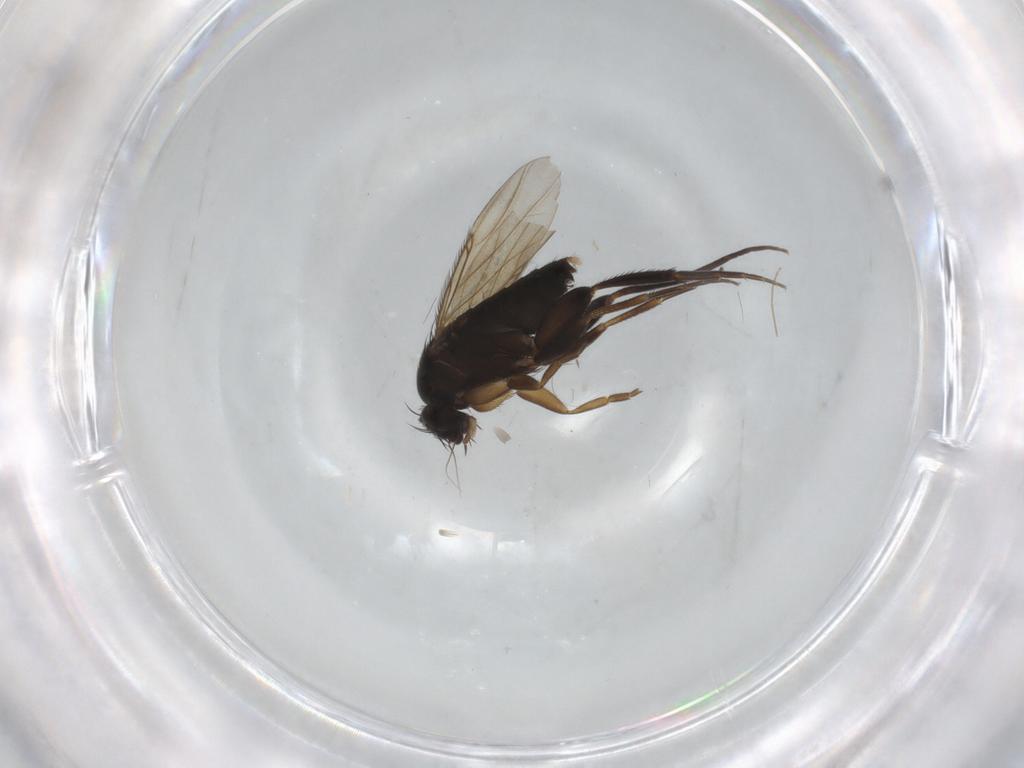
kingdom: Animalia
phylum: Arthropoda
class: Insecta
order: Diptera
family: Phoridae
